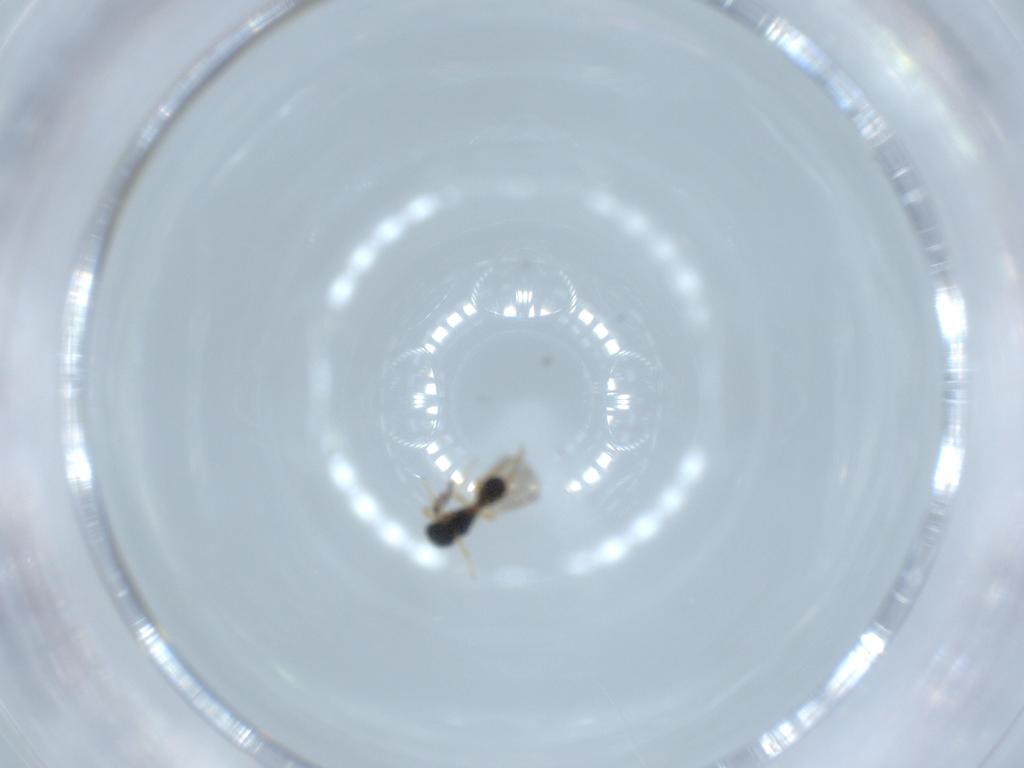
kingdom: Animalia
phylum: Arthropoda
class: Insecta
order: Hymenoptera
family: Platygastridae
